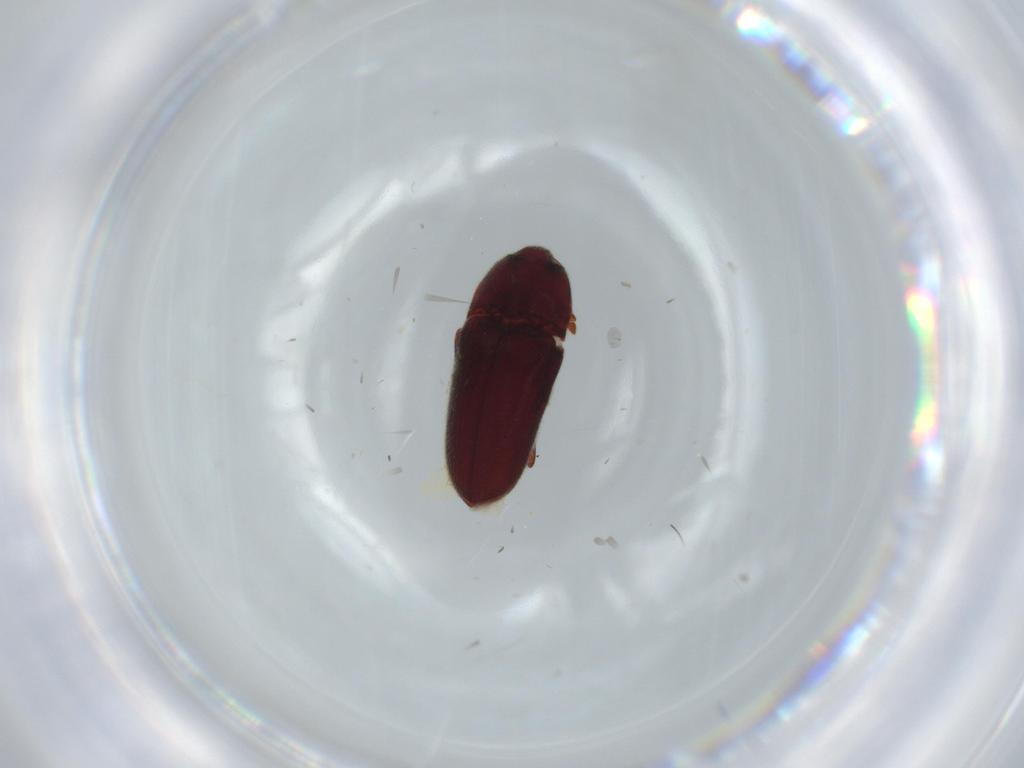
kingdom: Animalia
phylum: Arthropoda
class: Insecta
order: Coleoptera
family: Throscidae
